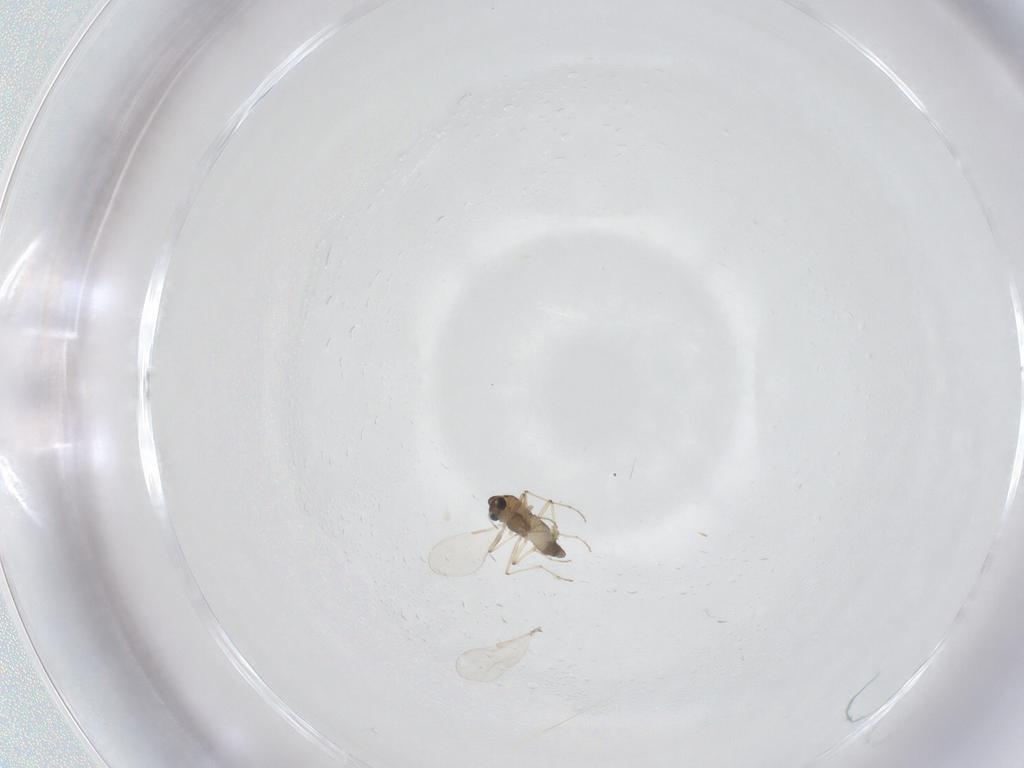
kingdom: Animalia
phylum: Arthropoda
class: Insecta
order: Diptera
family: Chironomidae
